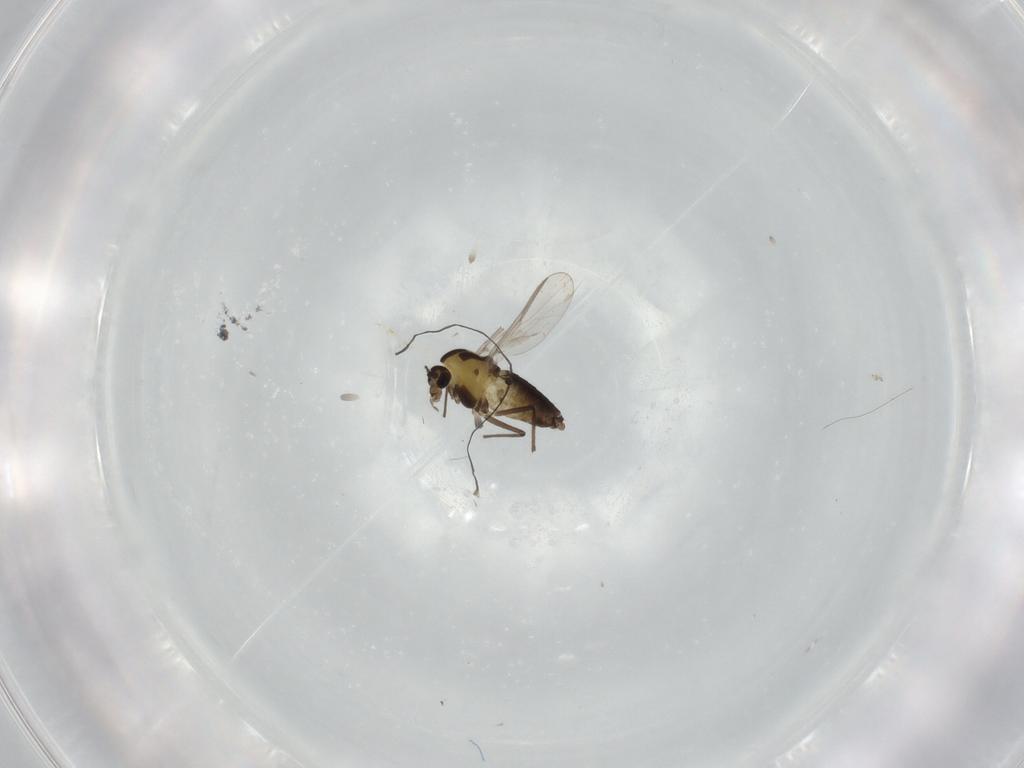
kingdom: Animalia
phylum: Arthropoda
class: Insecta
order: Diptera
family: Chironomidae
